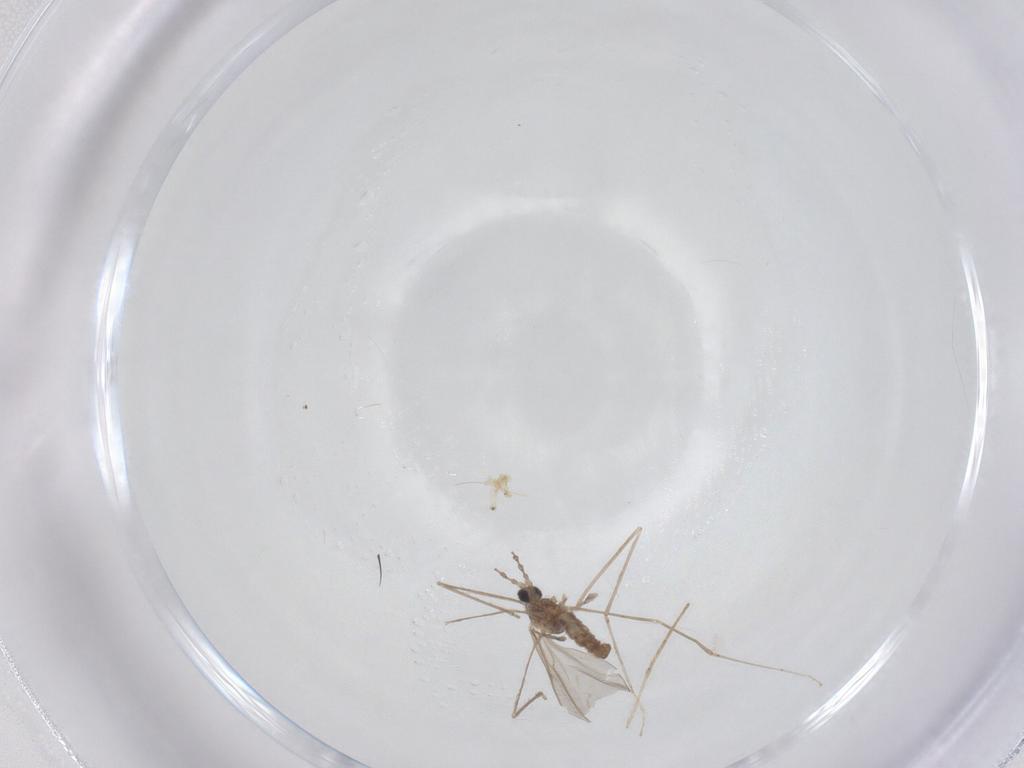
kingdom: Animalia
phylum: Arthropoda
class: Insecta
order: Diptera
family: Cecidomyiidae
